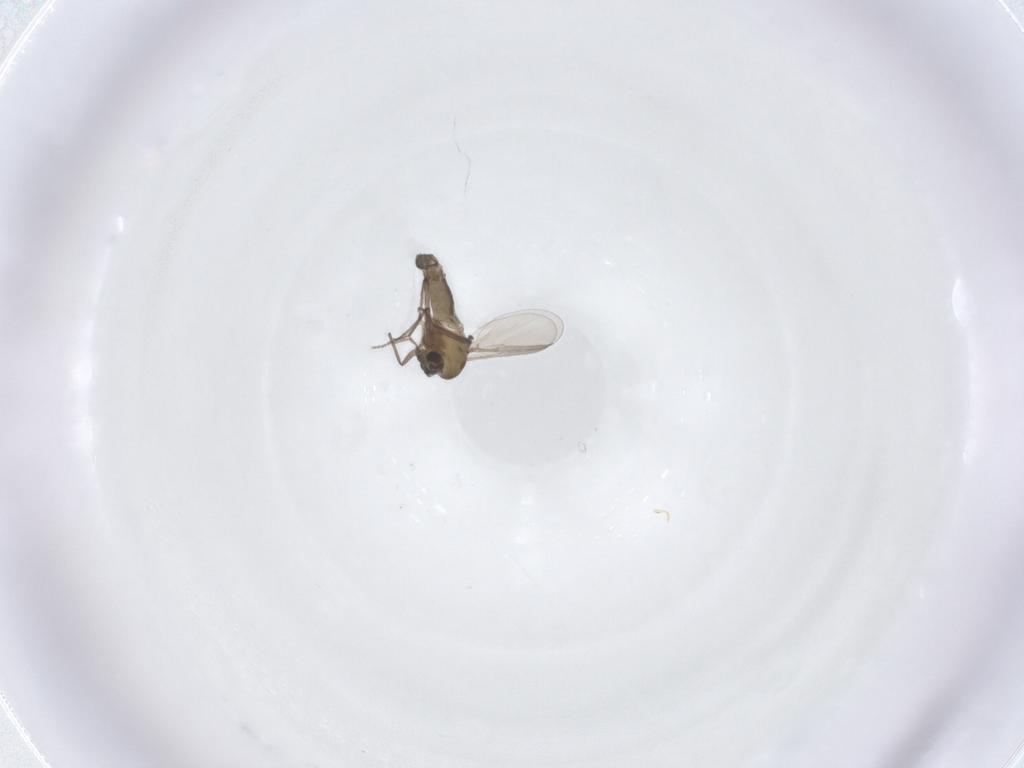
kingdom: Animalia
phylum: Arthropoda
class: Insecta
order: Diptera
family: Chironomidae
